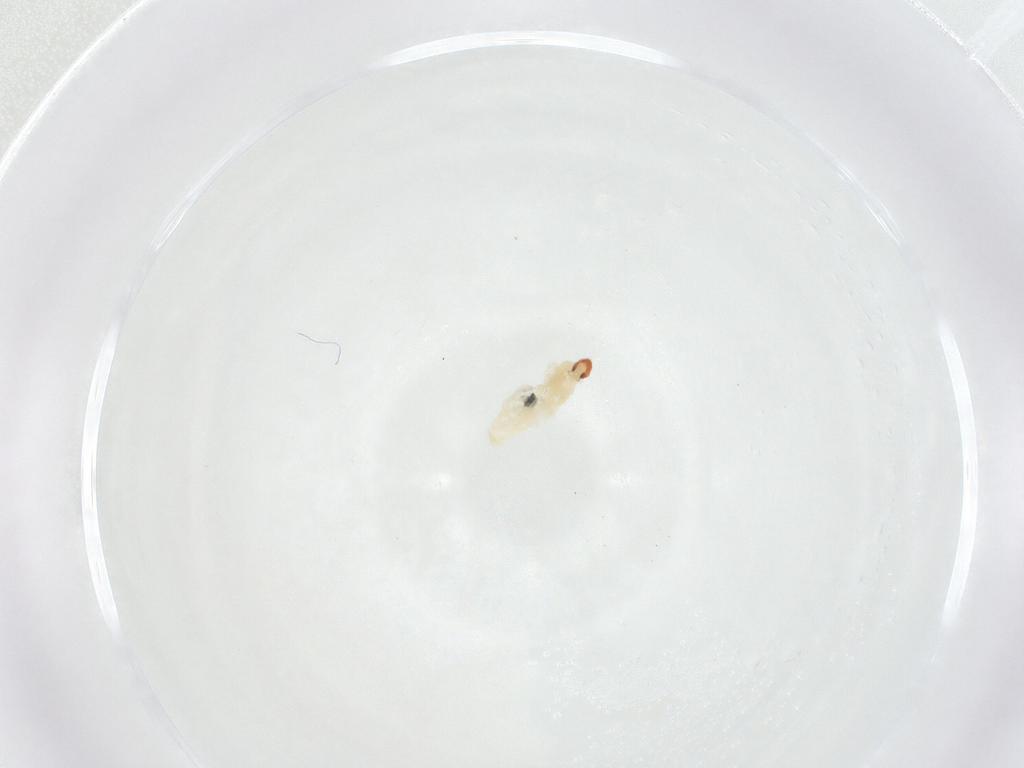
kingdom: Animalia
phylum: Arthropoda
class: Insecta
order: Diptera
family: Cecidomyiidae
